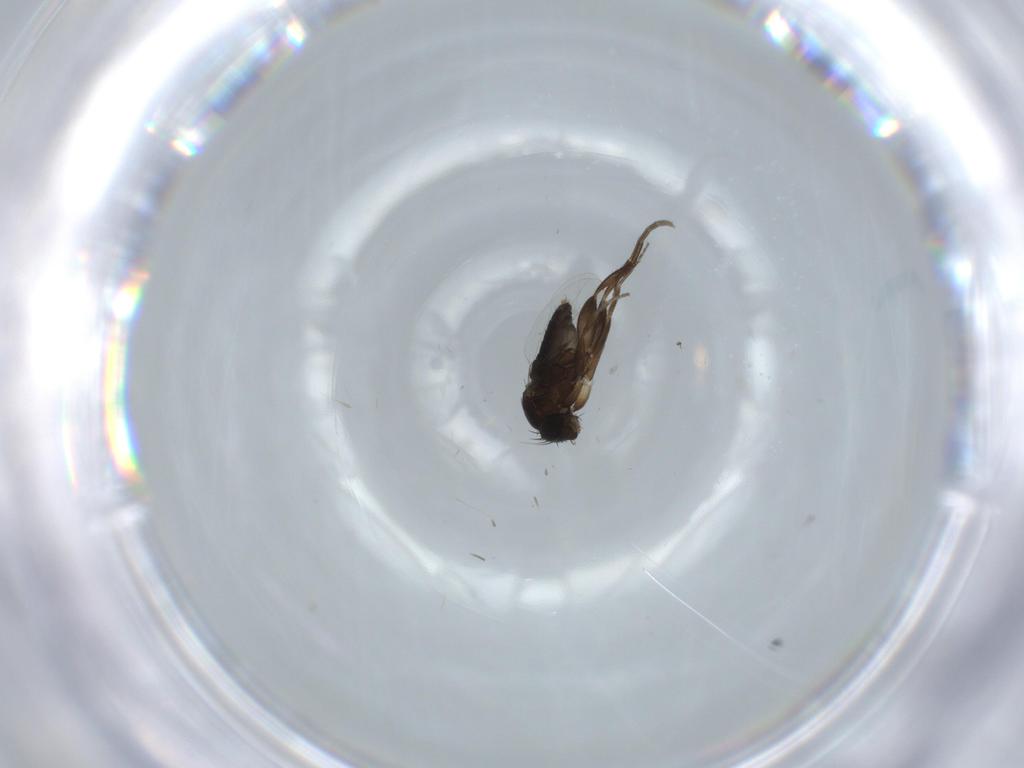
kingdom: Animalia
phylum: Arthropoda
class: Insecta
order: Diptera
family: Phoridae
